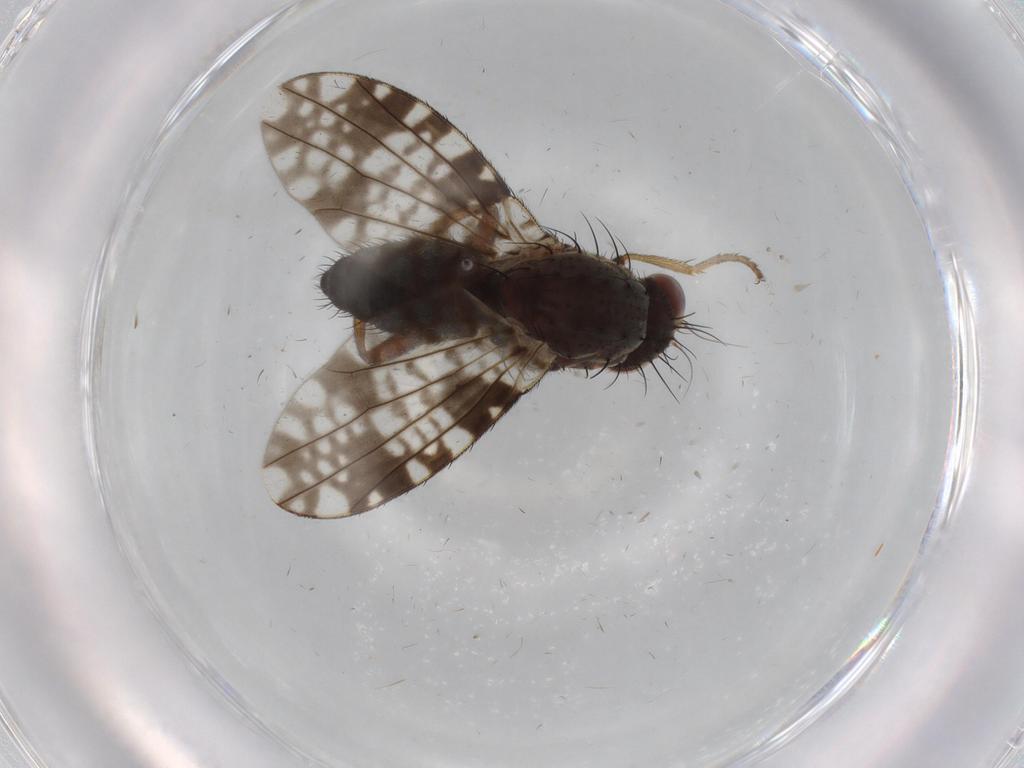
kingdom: Animalia
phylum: Arthropoda
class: Insecta
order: Diptera
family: Tephritidae
